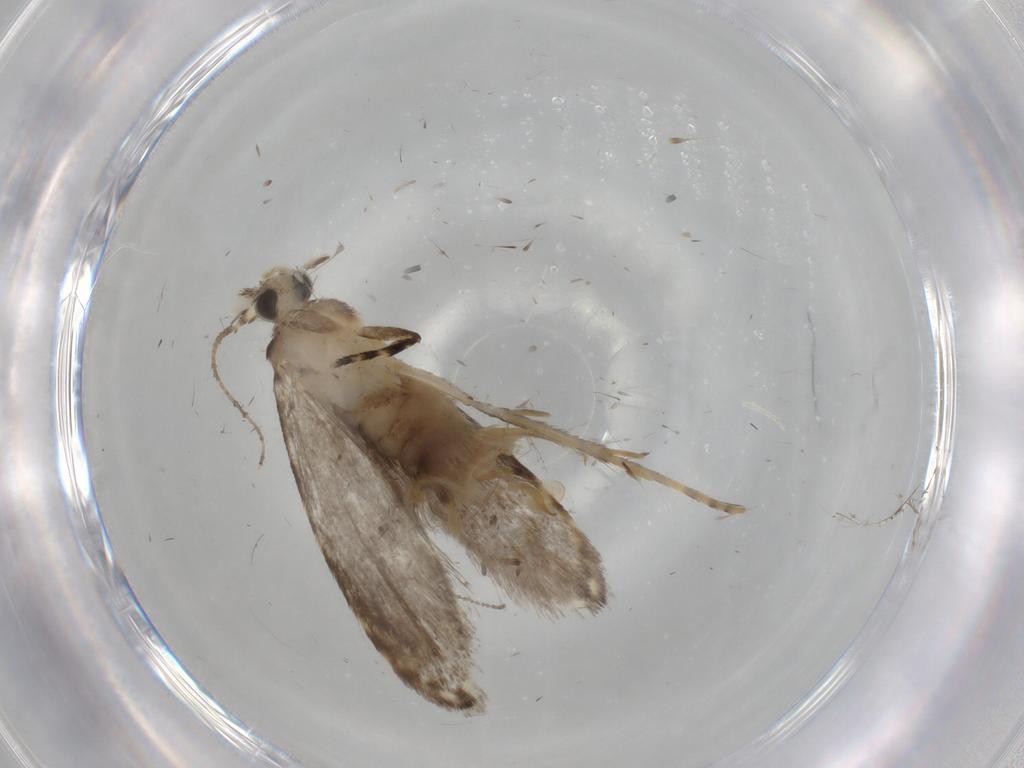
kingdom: Animalia
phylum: Arthropoda
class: Insecta
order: Lepidoptera
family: Tineidae
